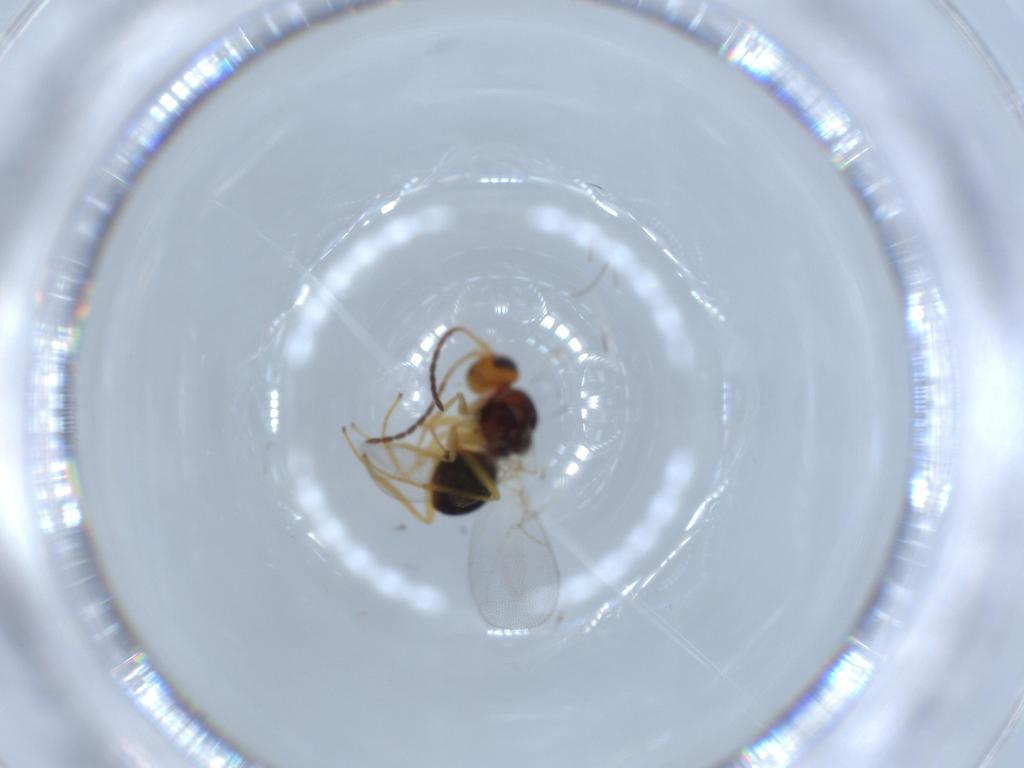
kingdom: Animalia
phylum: Arthropoda
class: Insecta
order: Hymenoptera
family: Figitidae
